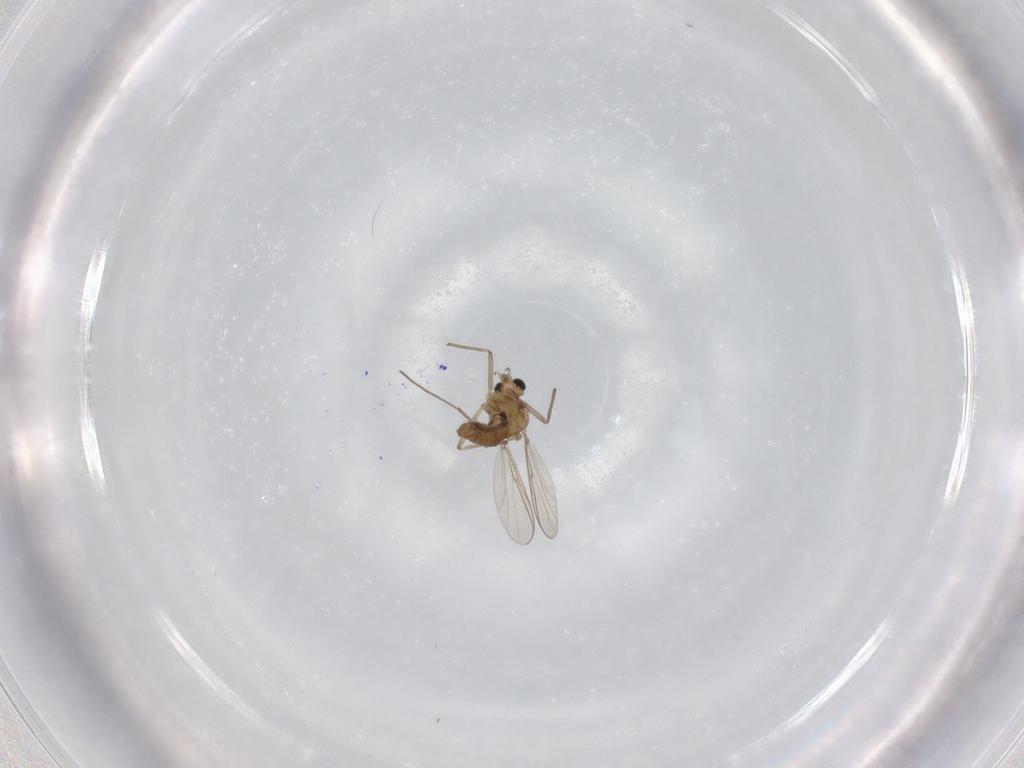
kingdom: Animalia
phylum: Arthropoda
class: Insecta
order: Diptera
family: Chironomidae
